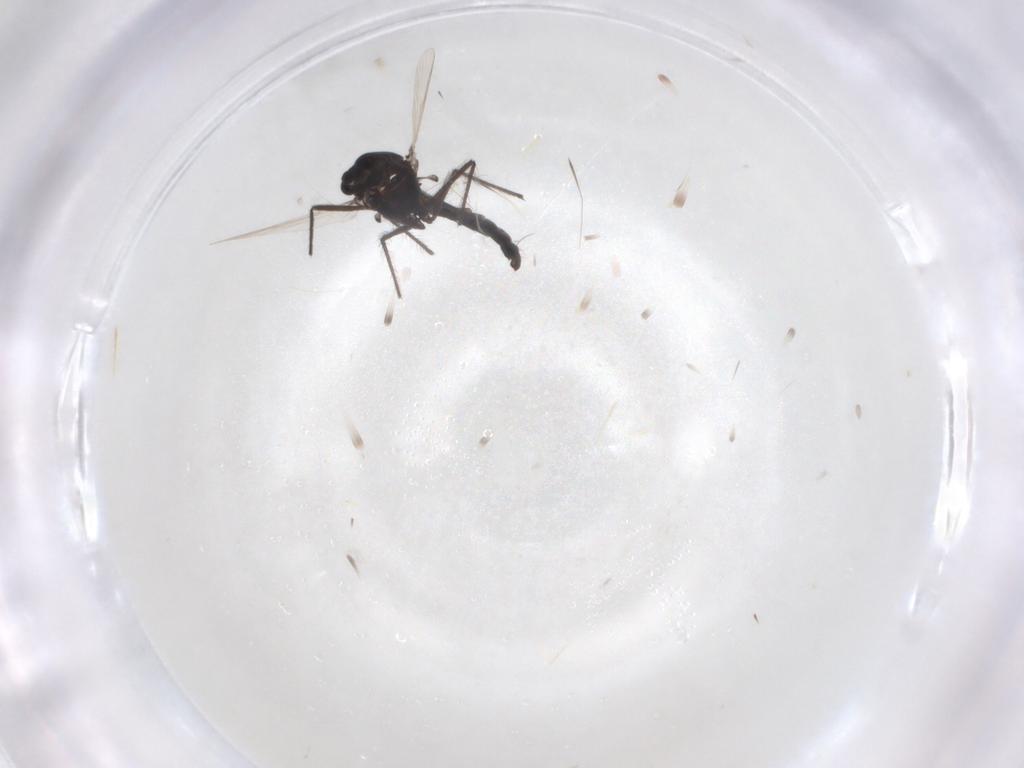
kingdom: Animalia
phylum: Arthropoda
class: Insecta
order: Diptera
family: Chironomidae
